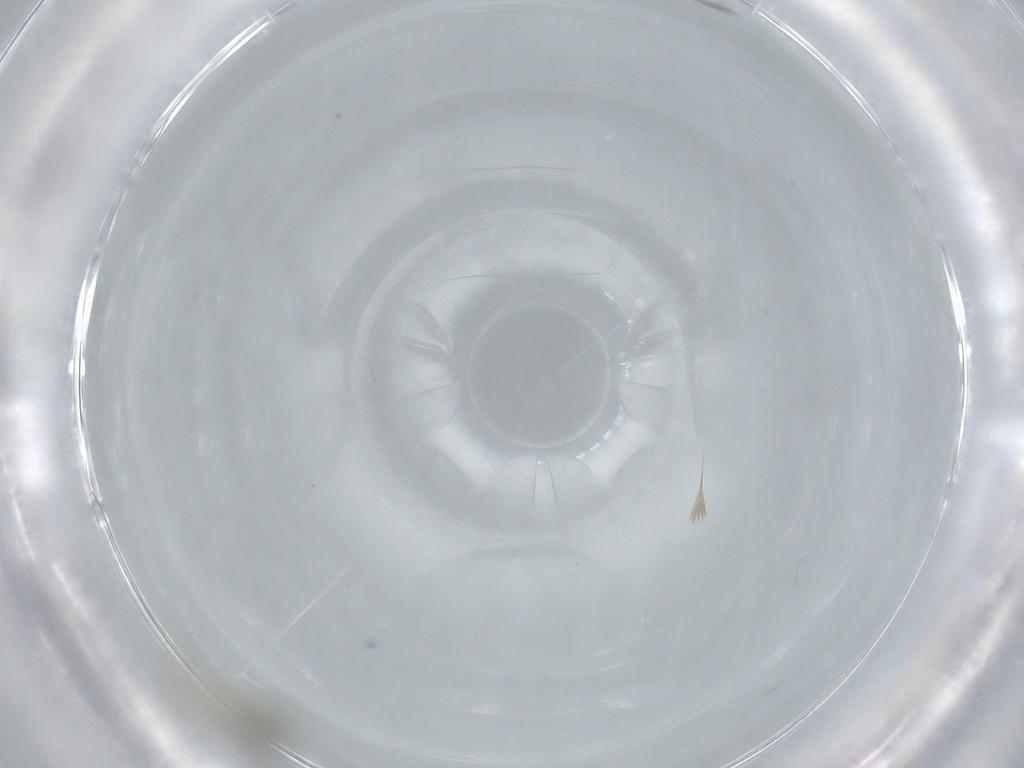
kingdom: Animalia
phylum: Arthropoda
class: Insecta
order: Diptera
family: Cecidomyiidae
